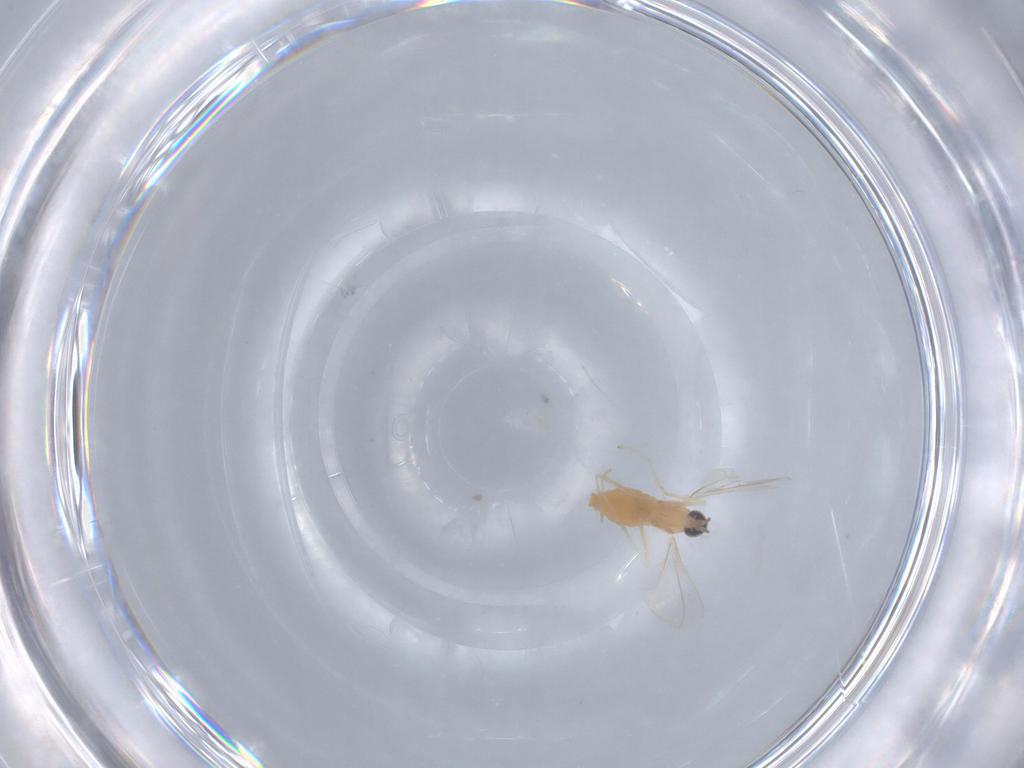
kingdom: Animalia
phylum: Arthropoda
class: Insecta
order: Diptera
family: Cecidomyiidae
